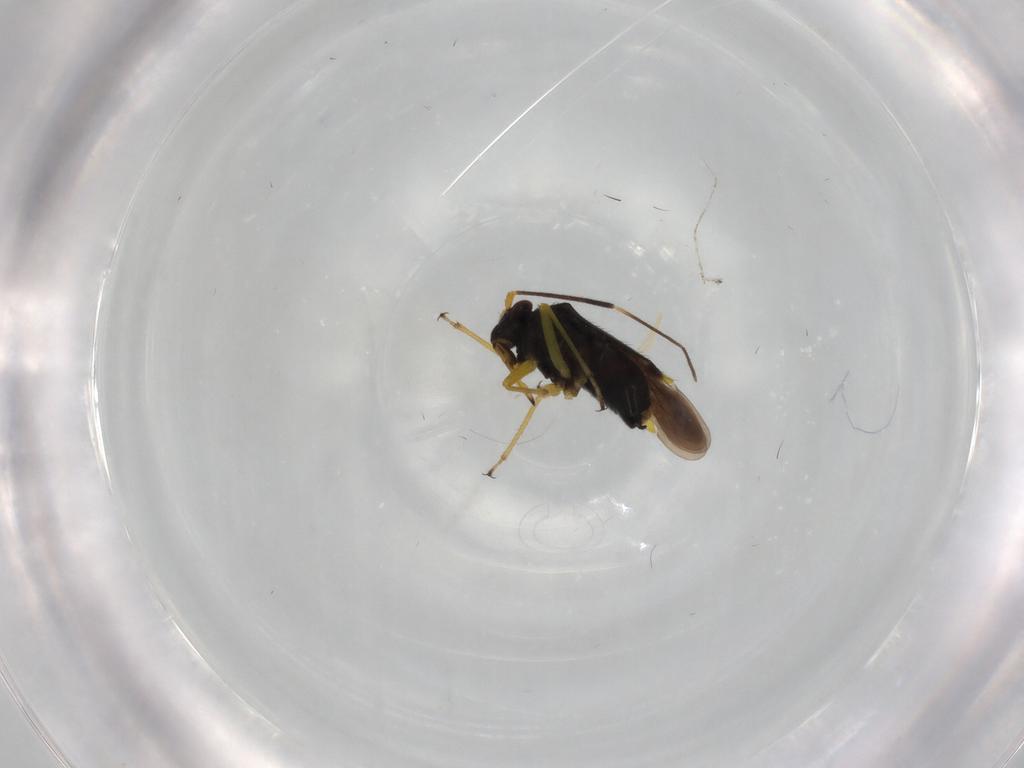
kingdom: Animalia
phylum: Arthropoda
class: Insecta
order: Hemiptera
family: Miridae
